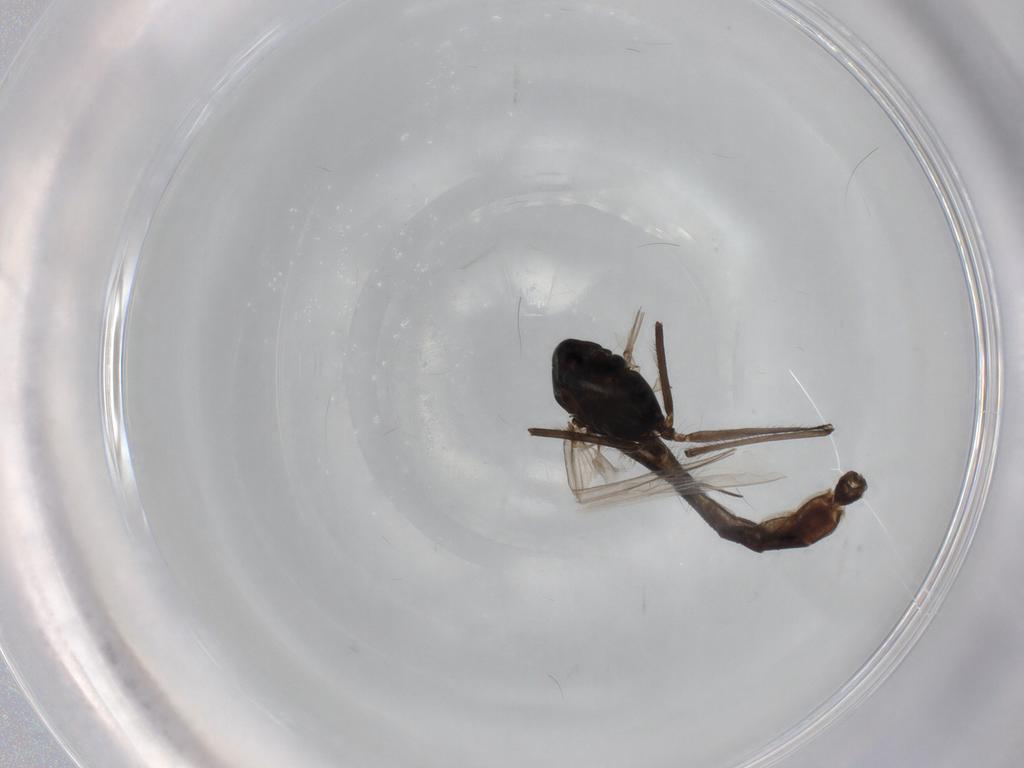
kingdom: Animalia
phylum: Arthropoda
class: Insecta
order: Diptera
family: Chironomidae
